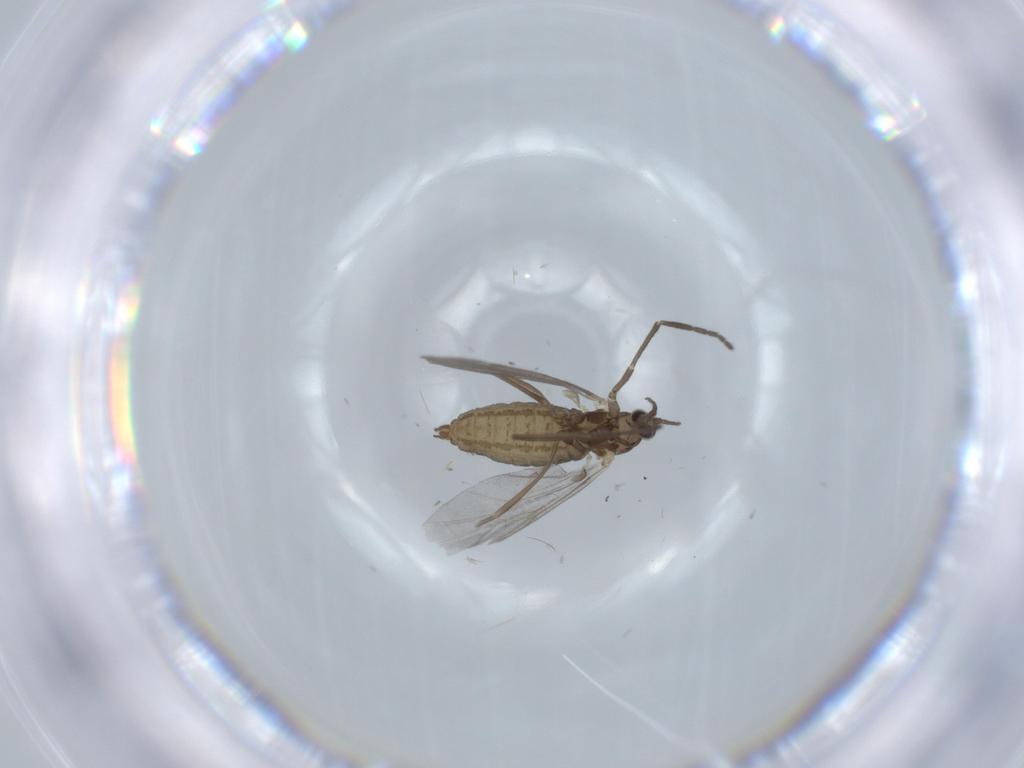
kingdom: Animalia
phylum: Arthropoda
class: Insecta
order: Diptera
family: Cecidomyiidae
